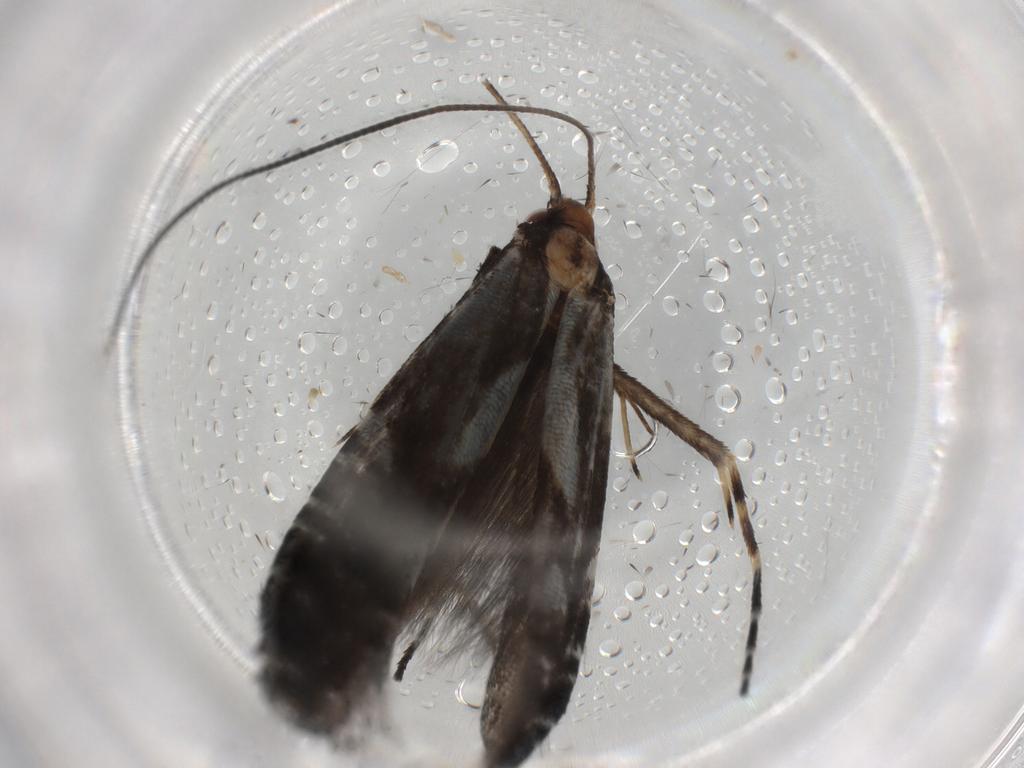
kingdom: Animalia
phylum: Arthropoda
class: Insecta
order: Lepidoptera
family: Nepticulidae
